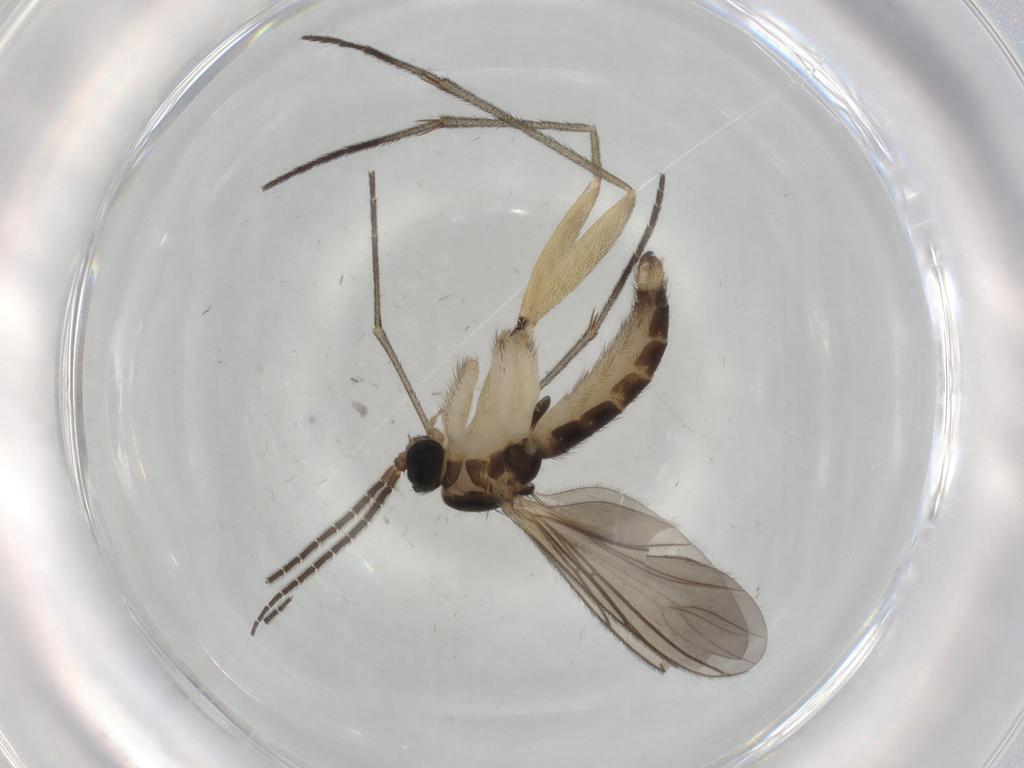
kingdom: Animalia
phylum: Arthropoda
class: Insecta
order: Diptera
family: Sciaridae
